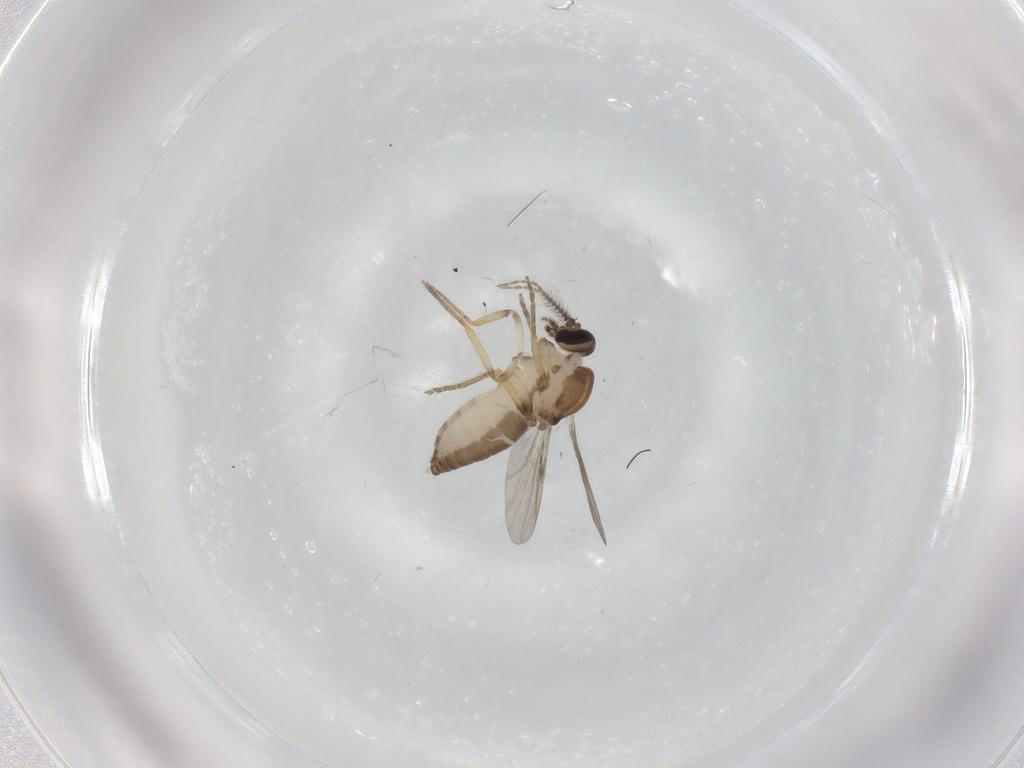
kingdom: Animalia
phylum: Arthropoda
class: Insecta
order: Diptera
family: Ceratopogonidae
